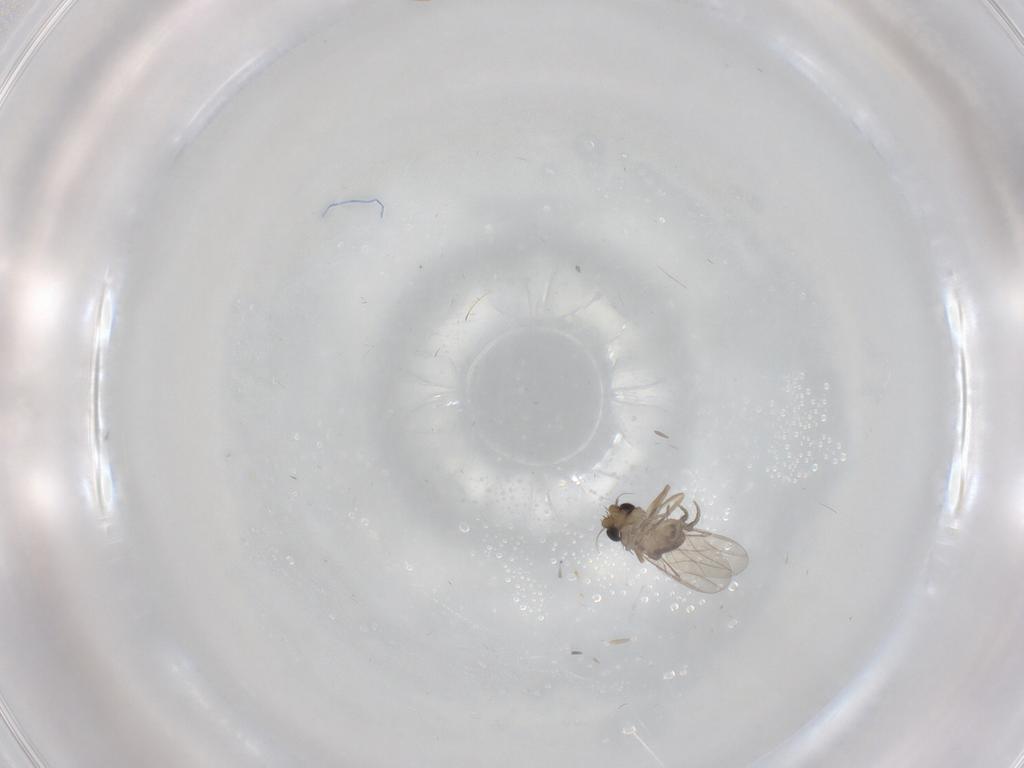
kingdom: Animalia
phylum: Arthropoda
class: Insecta
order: Diptera
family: Phoridae
